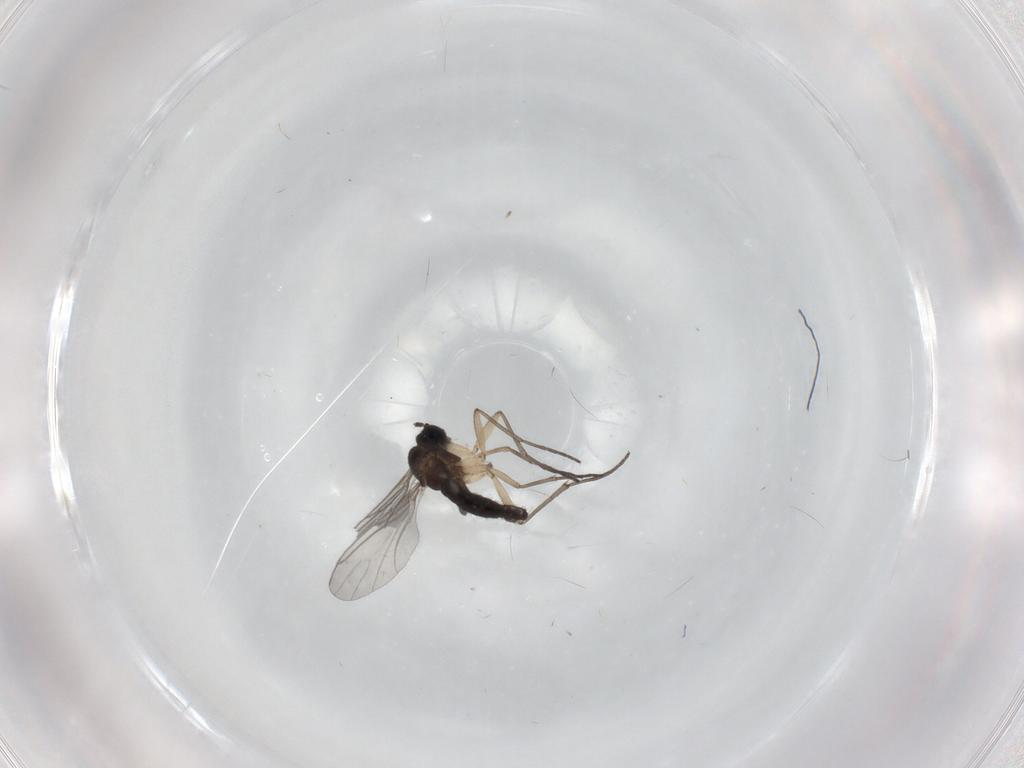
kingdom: Animalia
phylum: Arthropoda
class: Insecta
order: Diptera
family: Sciaridae
